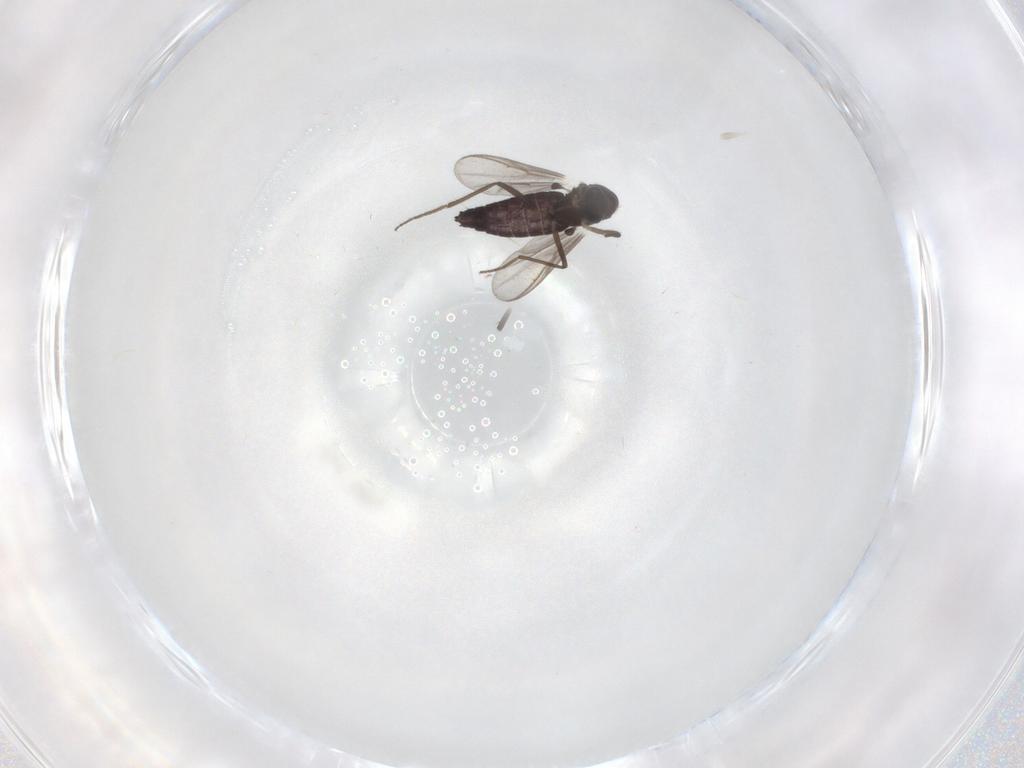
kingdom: Animalia
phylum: Arthropoda
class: Insecta
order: Diptera
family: Chironomidae
